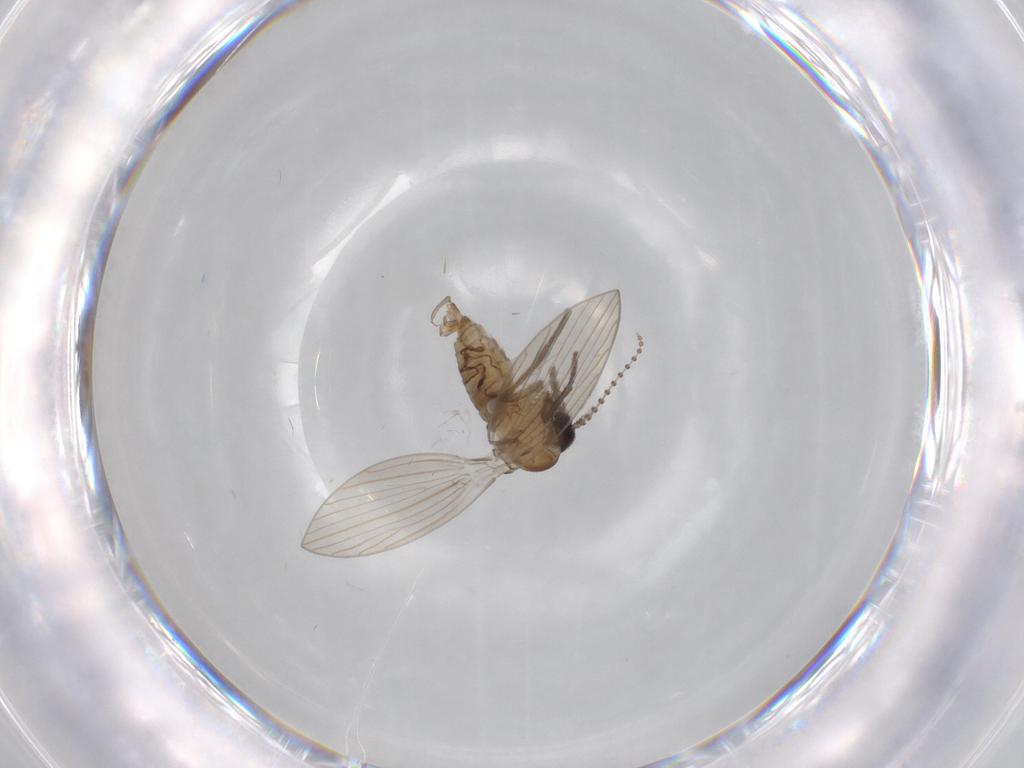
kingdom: Animalia
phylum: Arthropoda
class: Insecta
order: Diptera
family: Psychodidae
